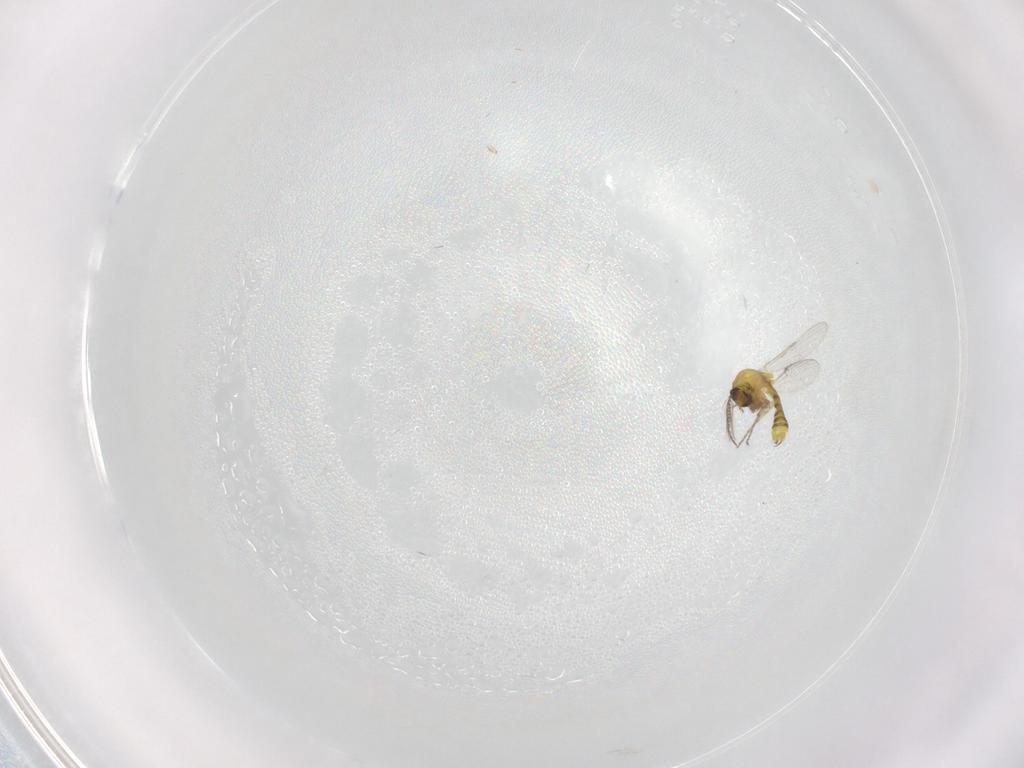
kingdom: Animalia
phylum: Arthropoda
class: Insecta
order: Diptera
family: Ceratopogonidae
